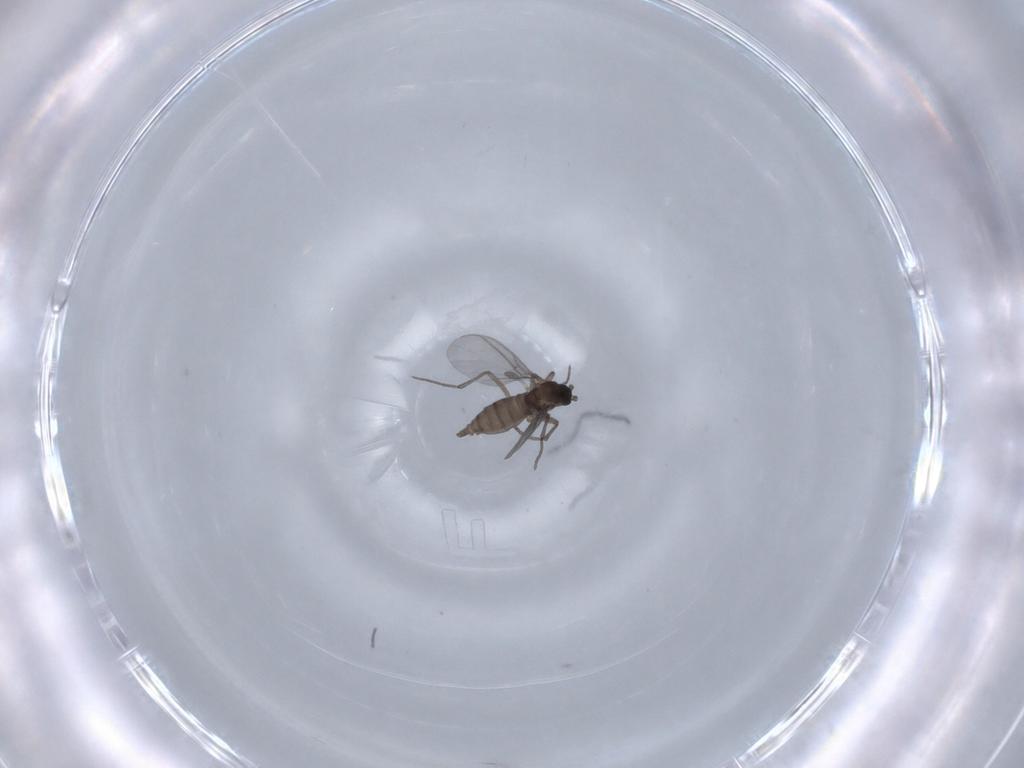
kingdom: Animalia
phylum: Arthropoda
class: Insecta
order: Diptera
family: Sciaridae
